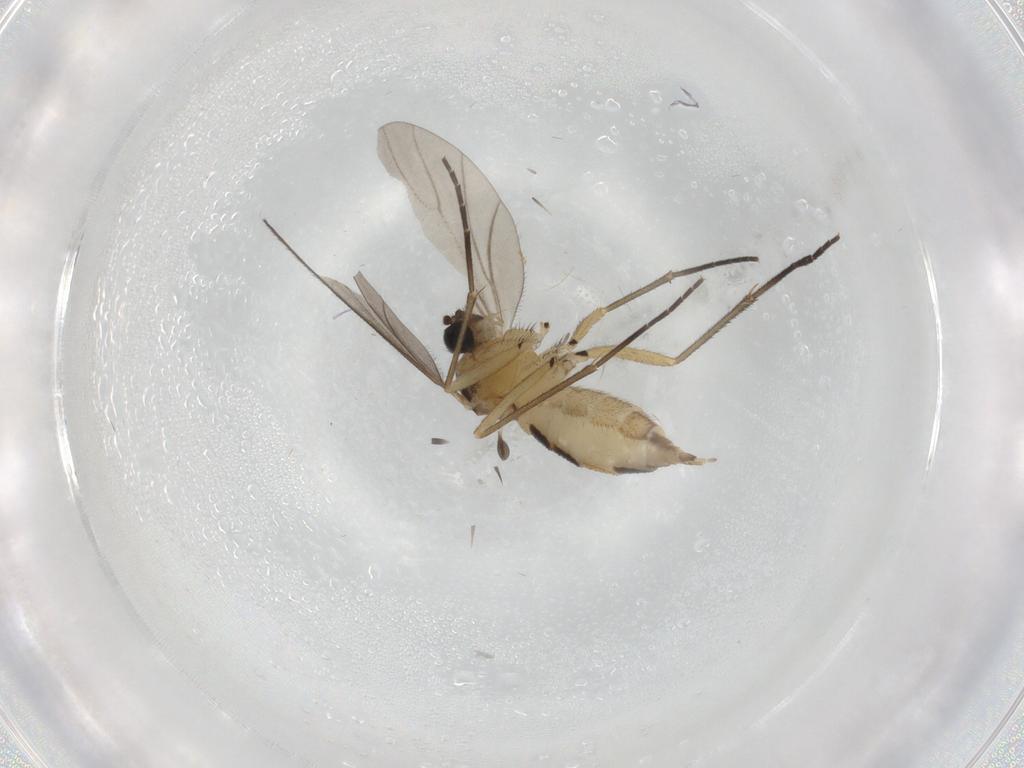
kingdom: Animalia
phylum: Arthropoda
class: Insecta
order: Diptera
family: Sciaridae
